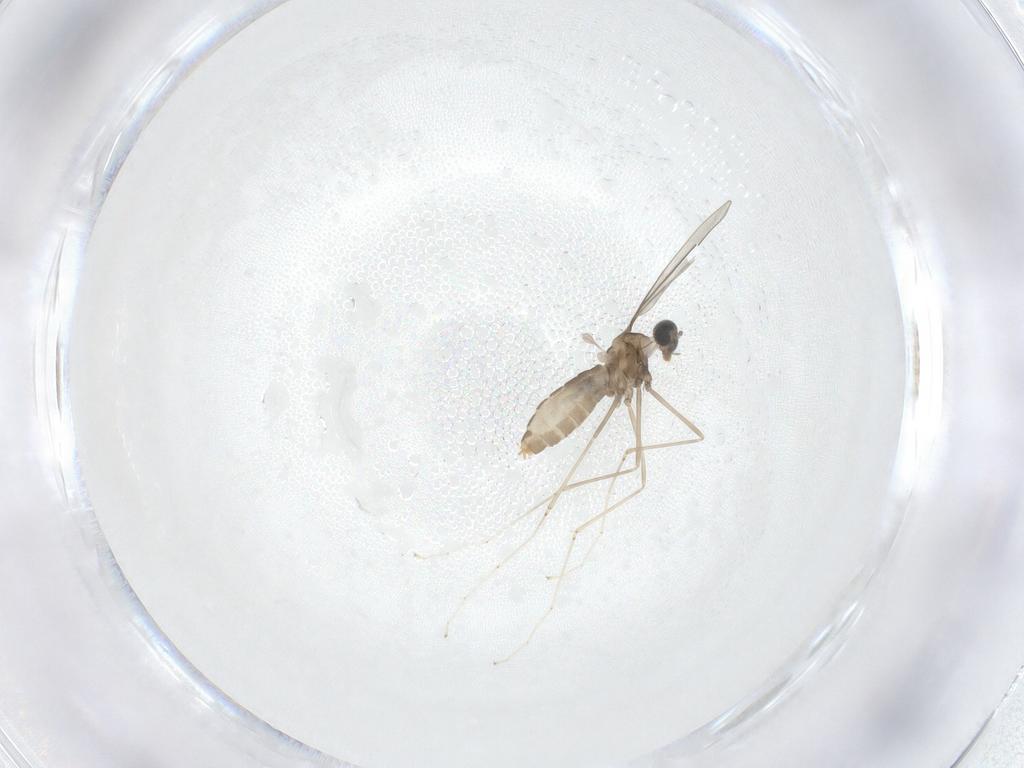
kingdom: Animalia
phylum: Arthropoda
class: Insecta
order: Diptera
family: Cecidomyiidae
